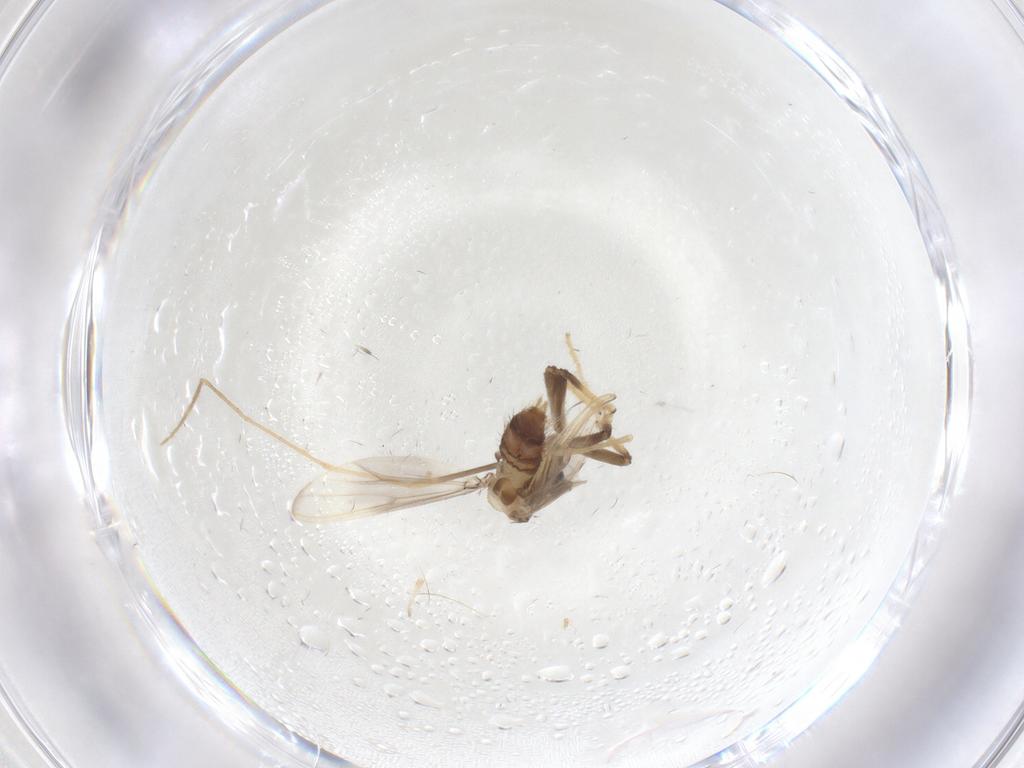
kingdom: Animalia
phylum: Arthropoda
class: Insecta
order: Diptera
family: Chironomidae
